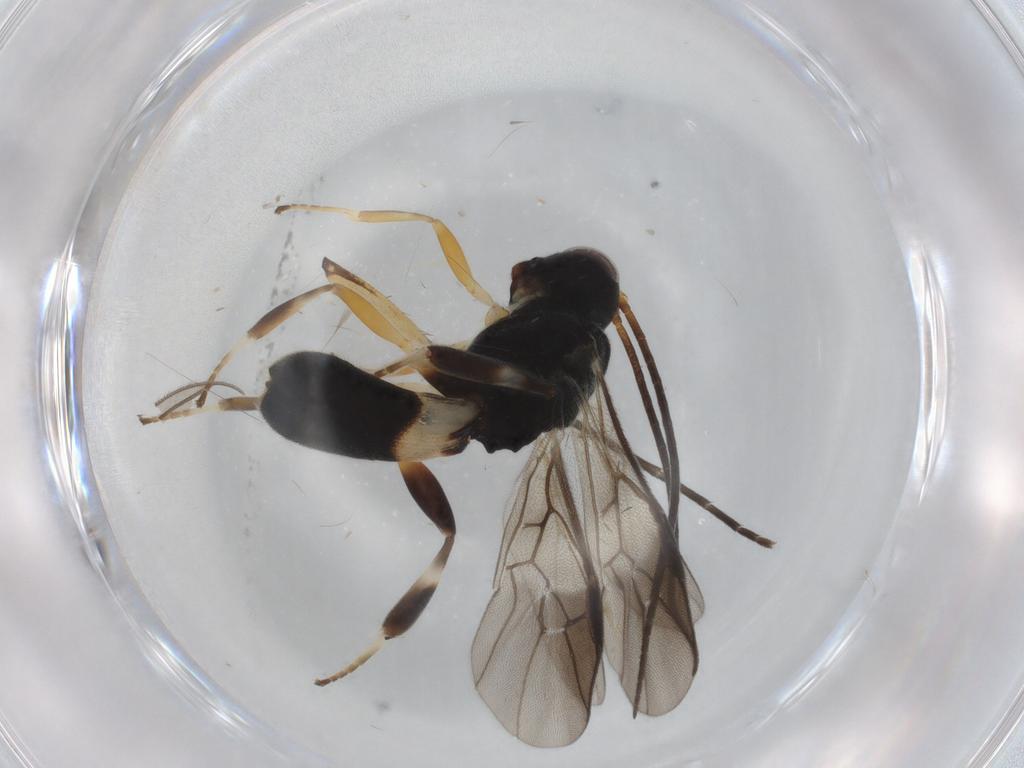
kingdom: Animalia
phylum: Arthropoda
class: Insecta
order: Hymenoptera
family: Braconidae
